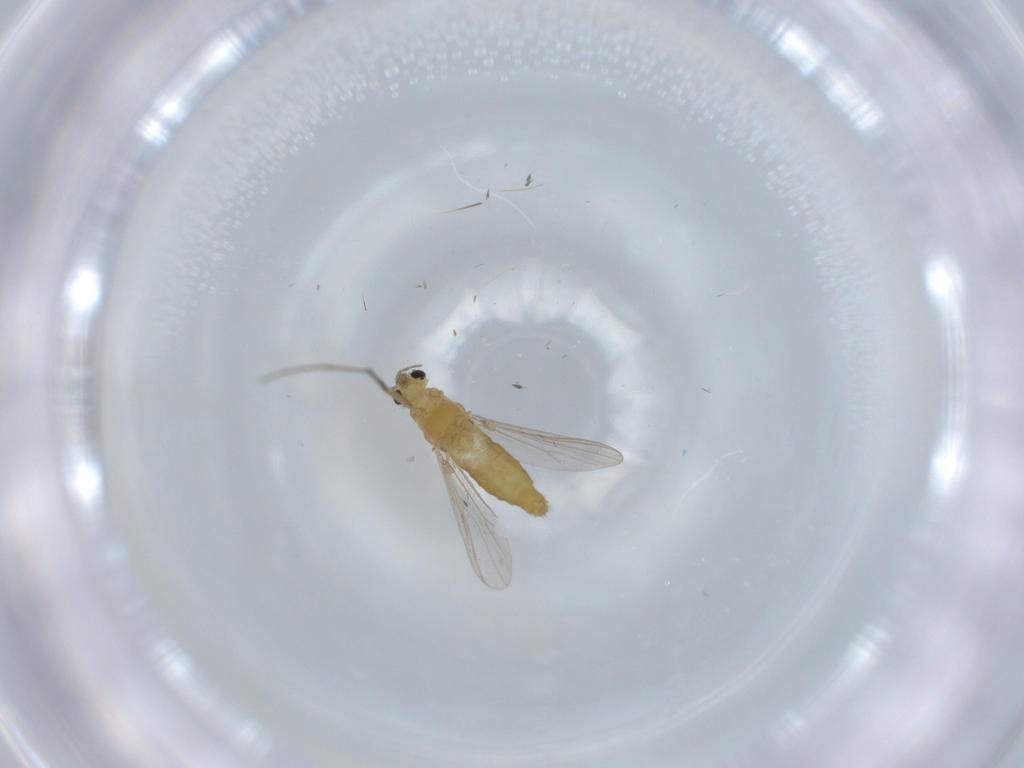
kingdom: Animalia
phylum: Arthropoda
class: Insecta
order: Diptera
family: Chironomidae
